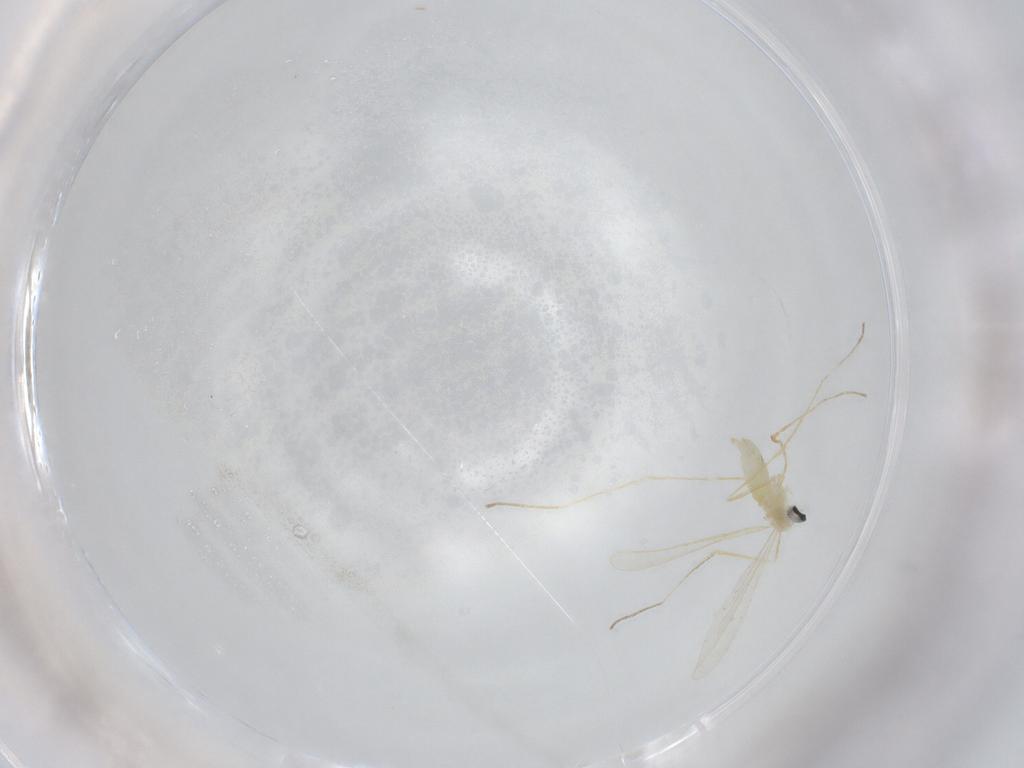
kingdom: Animalia
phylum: Arthropoda
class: Insecta
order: Diptera
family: Cecidomyiidae
